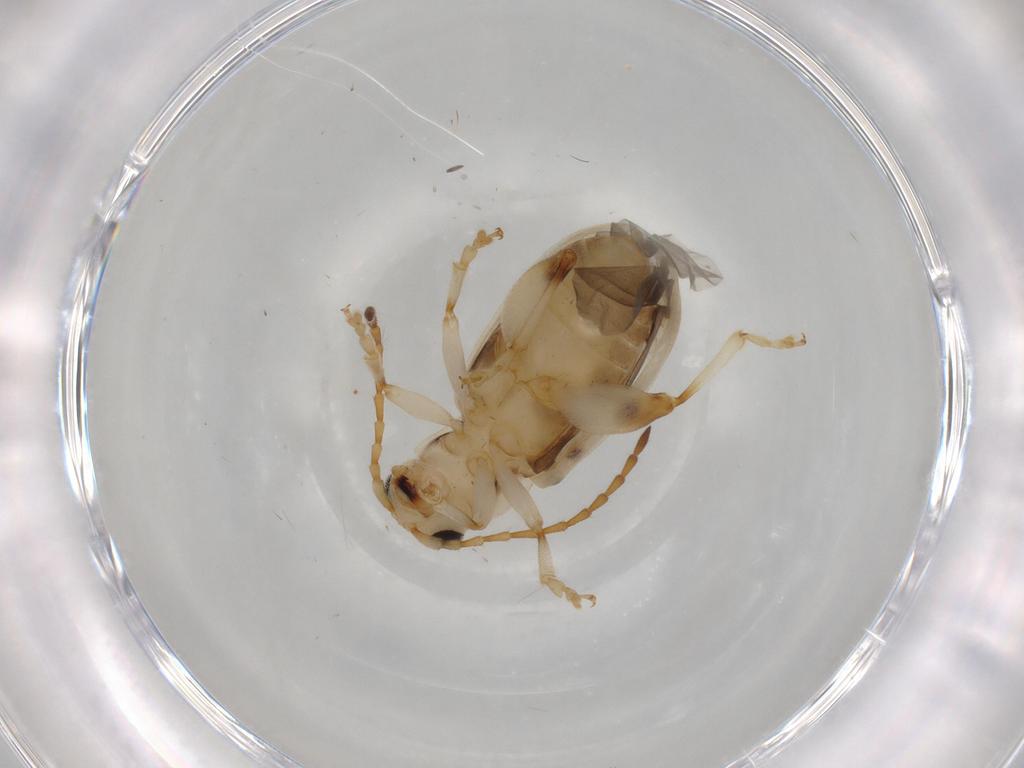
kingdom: Animalia
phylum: Arthropoda
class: Insecta
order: Coleoptera
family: Chrysomelidae
